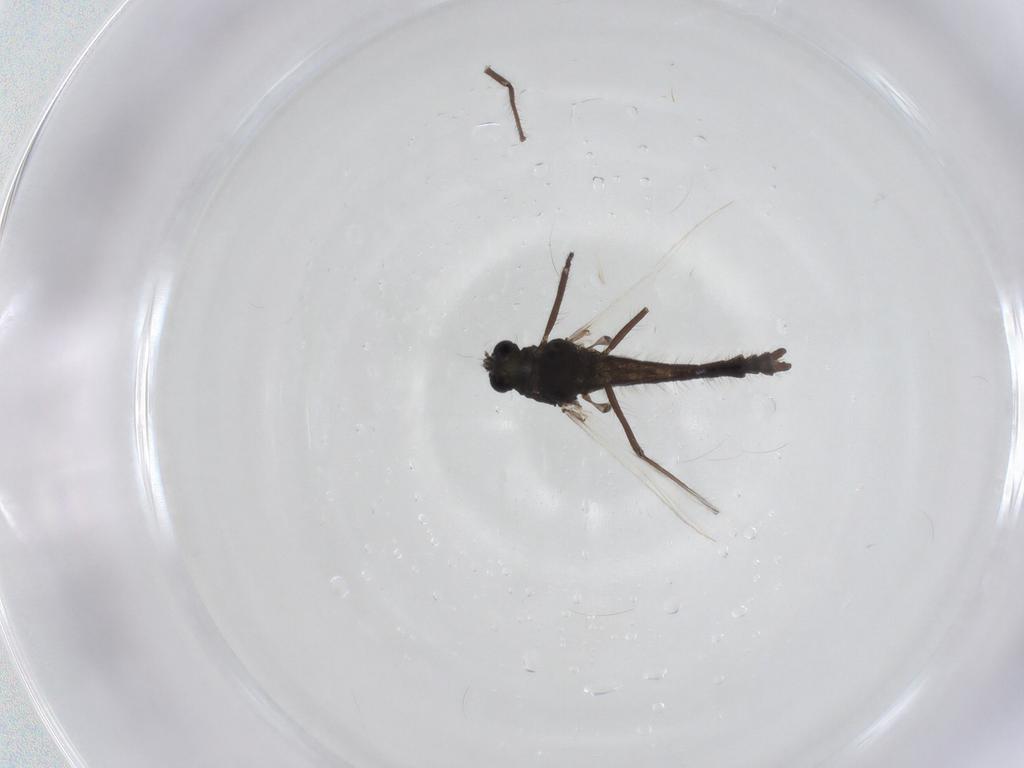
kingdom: Animalia
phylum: Arthropoda
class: Insecta
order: Diptera
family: Chironomidae
